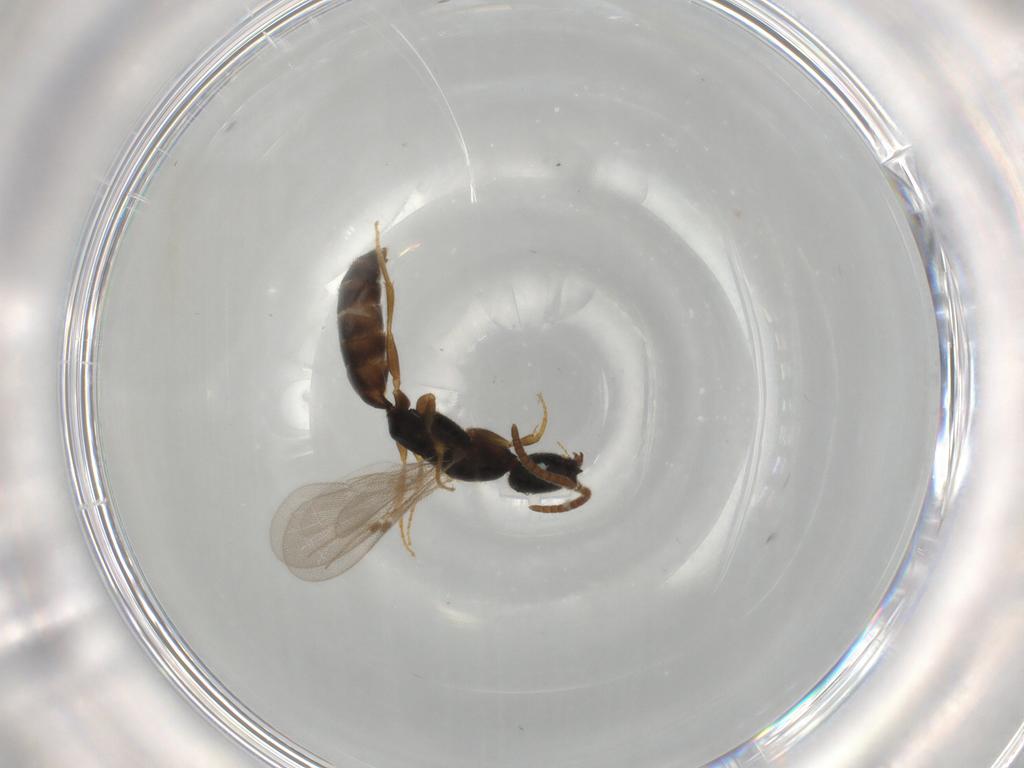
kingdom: Animalia
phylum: Arthropoda
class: Insecta
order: Hymenoptera
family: Bethylidae
